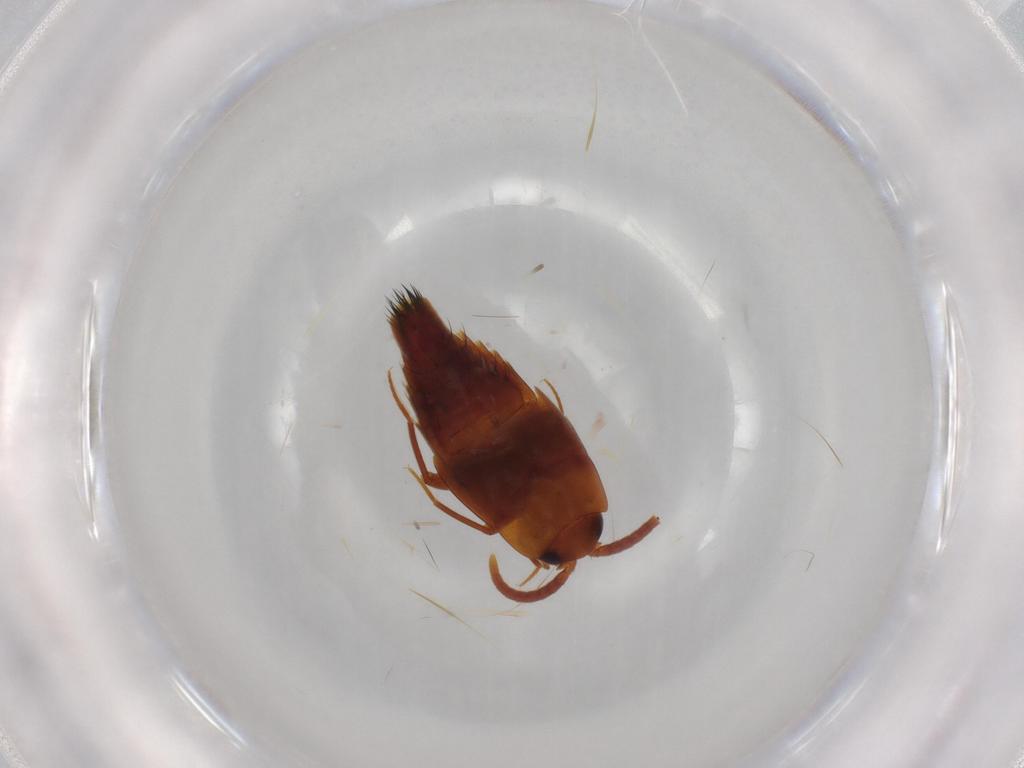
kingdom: Animalia
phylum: Arthropoda
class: Insecta
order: Coleoptera
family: Staphylinidae
